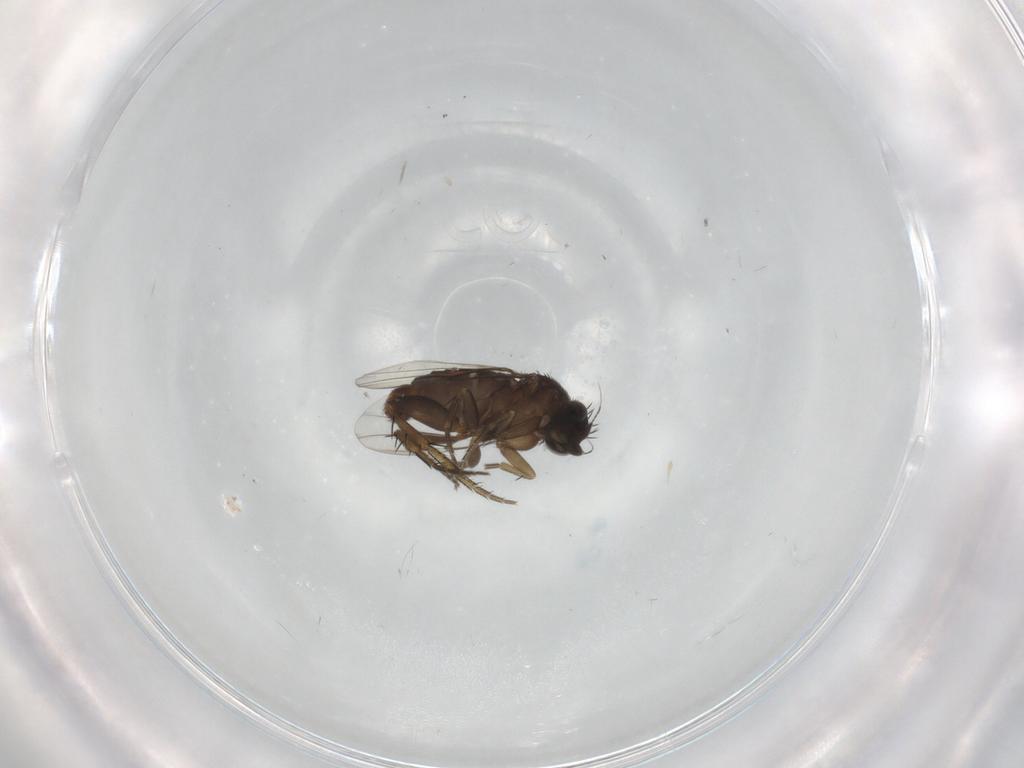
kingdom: Animalia
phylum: Arthropoda
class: Insecta
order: Diptera
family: Phoridae
